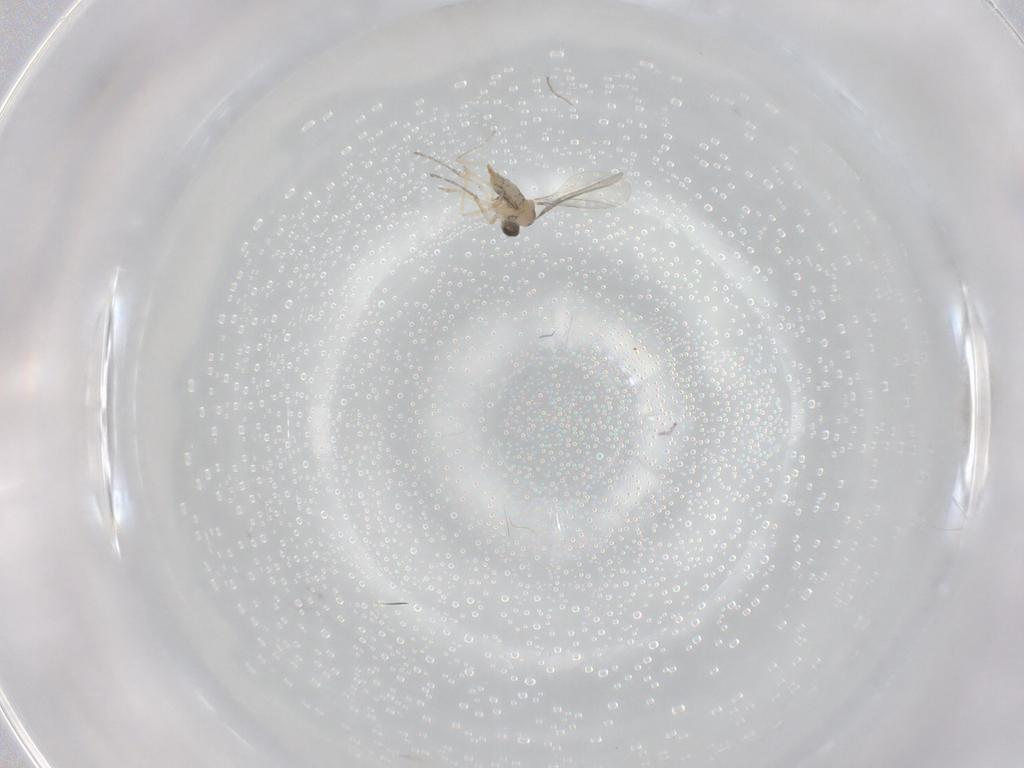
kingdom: Animalia
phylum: Arthropoda
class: Insecta
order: Diptera
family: Cecidomyiidae
